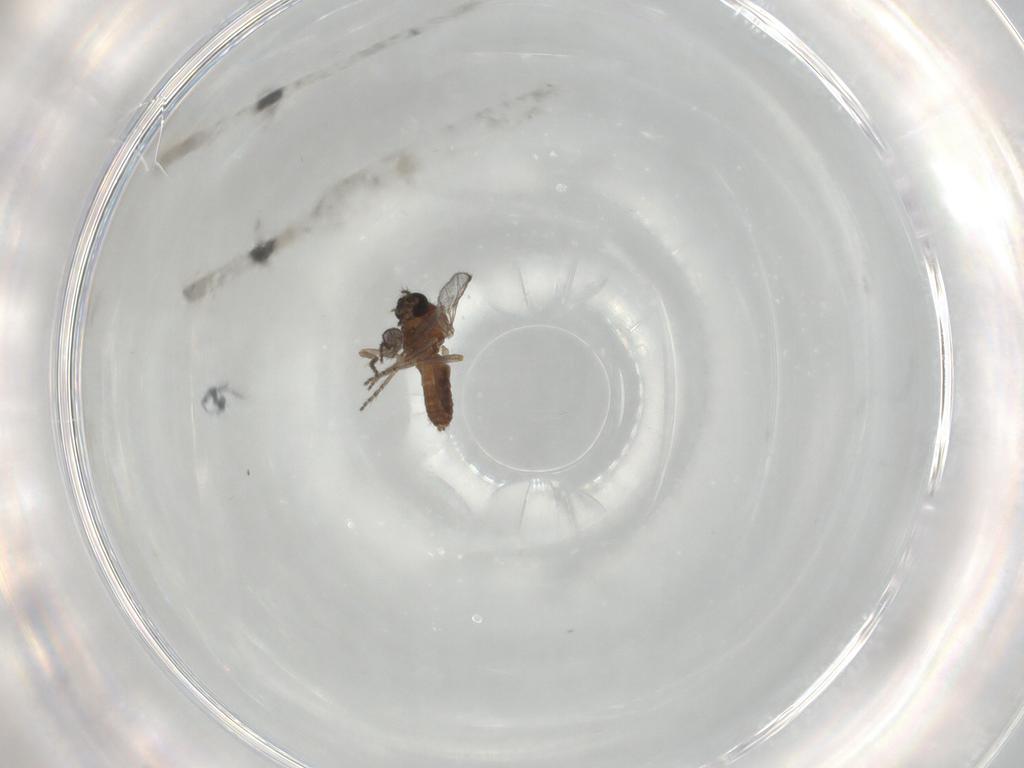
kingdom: Animalia
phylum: Arthropoda
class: Insecta
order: Diptera
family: Ceratopogonidae
